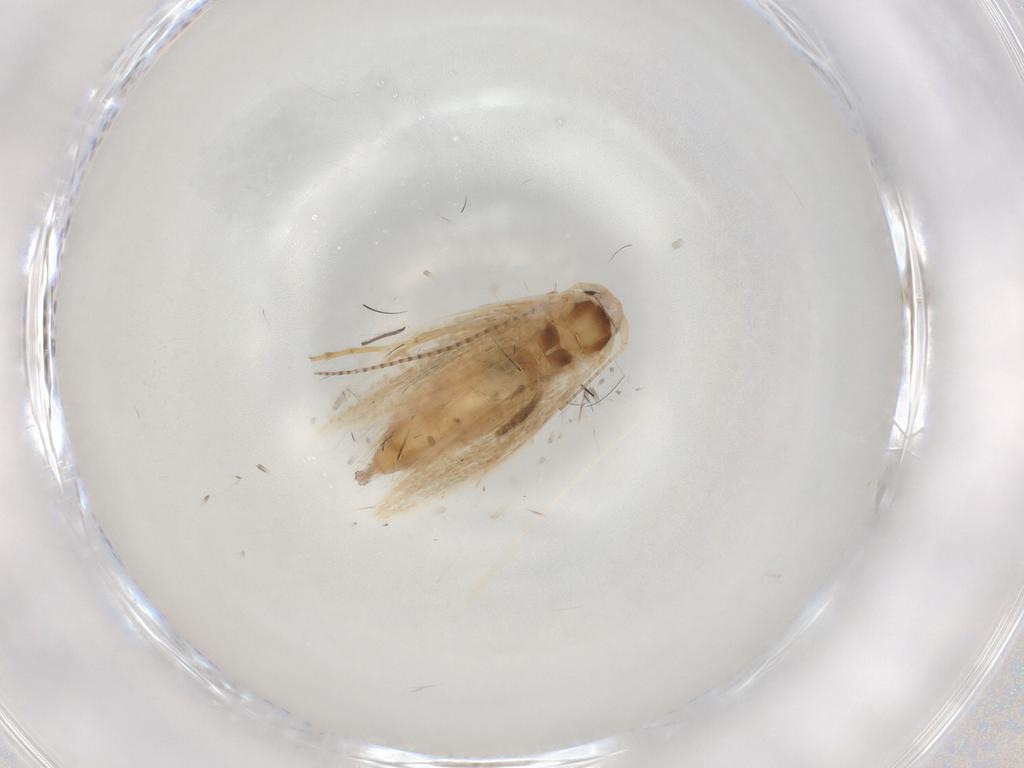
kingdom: Animalia
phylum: Arthropoda
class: Insecta
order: Lepidoptera
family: Bucculatricidae
